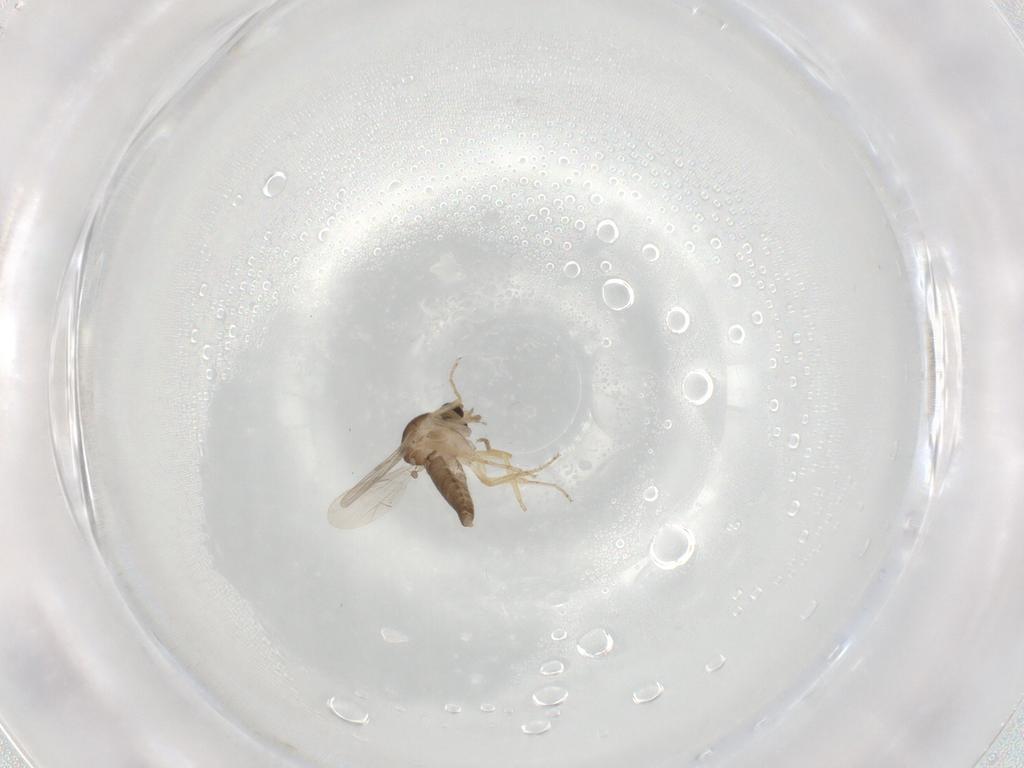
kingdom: Animalia
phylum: Arthropoda
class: Insecta
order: Diptera
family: Ceratopogonidae
